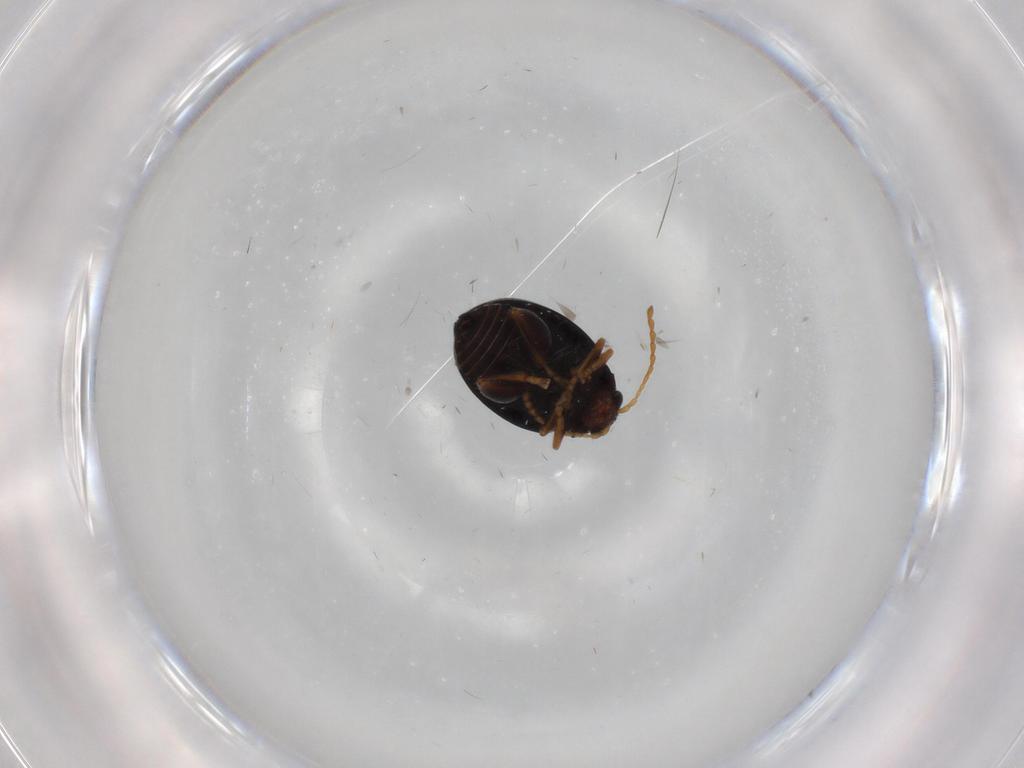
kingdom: Animalia
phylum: Arthropoda
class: Insecta
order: Coleoptera
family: Chrysomelidae
